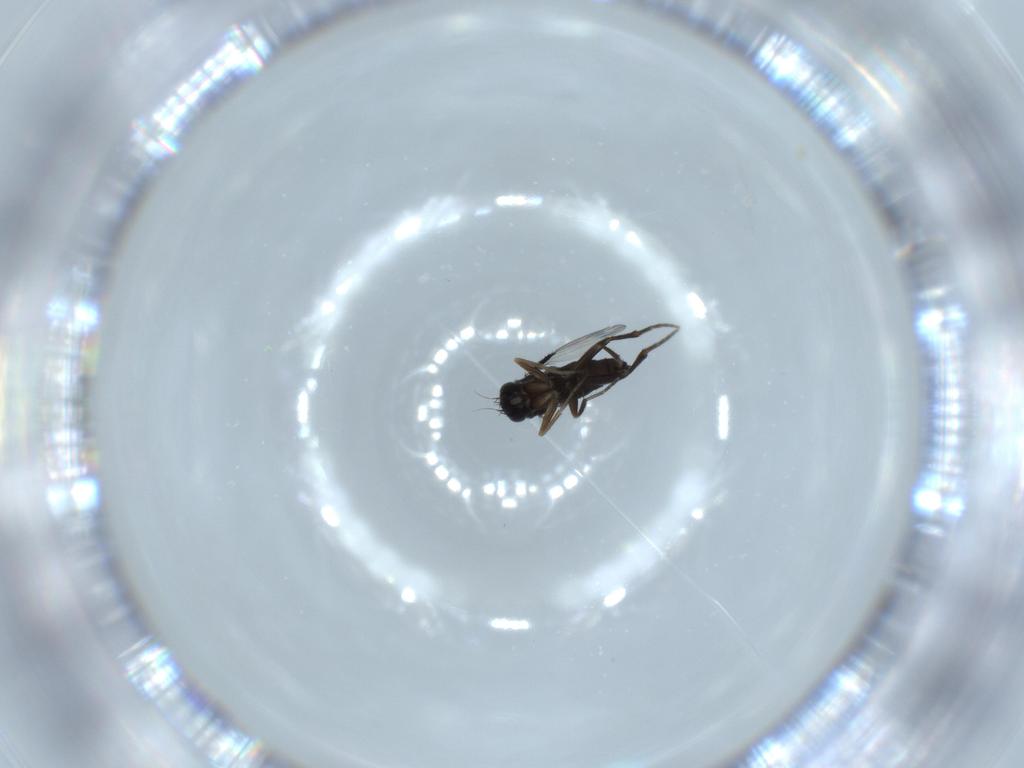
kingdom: Animalia
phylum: Arthropoda
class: Insecta
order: Diptera
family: Phoridae
